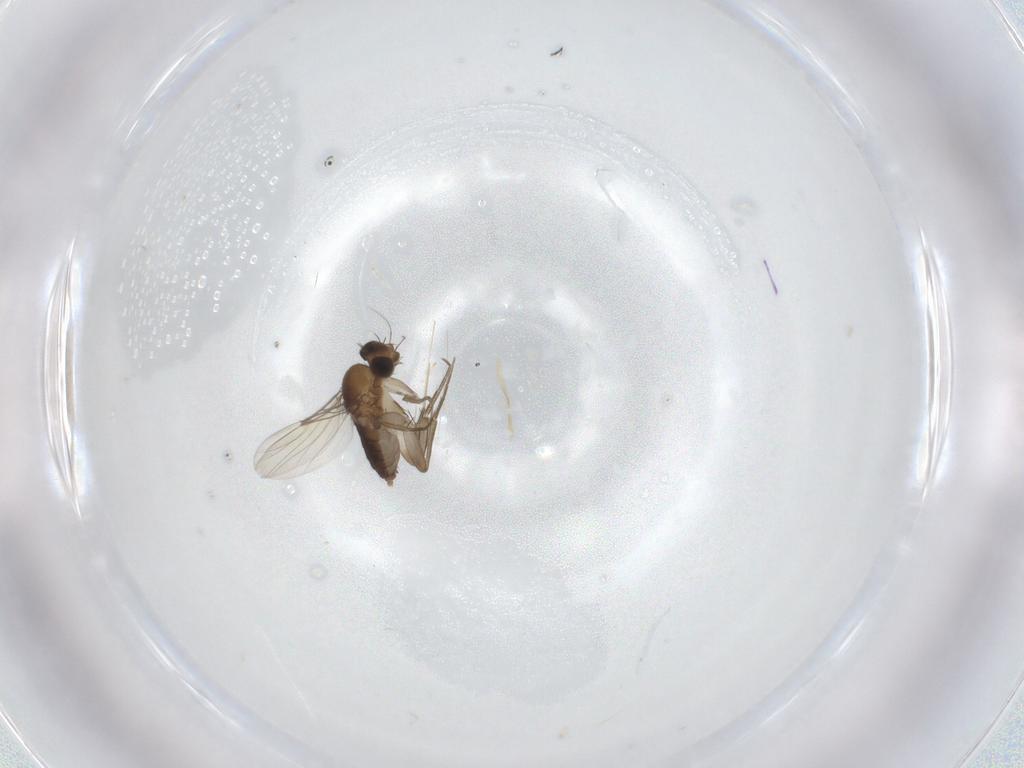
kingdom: Animalia
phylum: Arthropoda
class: Insecta
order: Diptera
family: Phoridae
